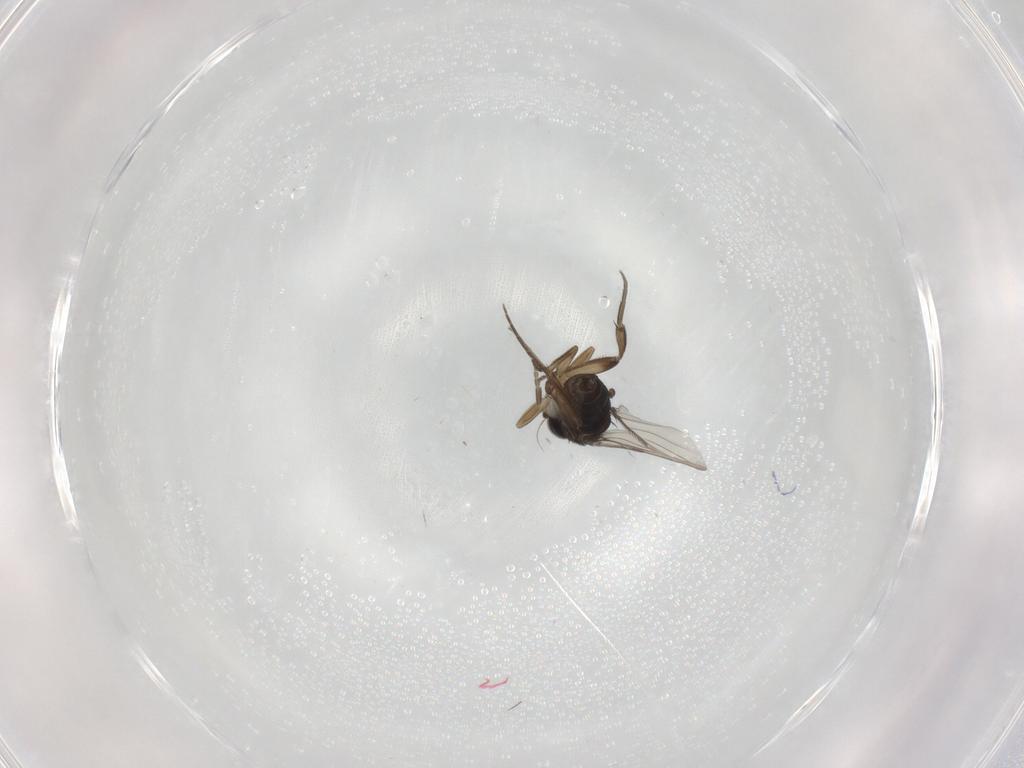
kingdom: Animalia
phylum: Arthropoda
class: Insecta
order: Diptera
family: Phoridae
